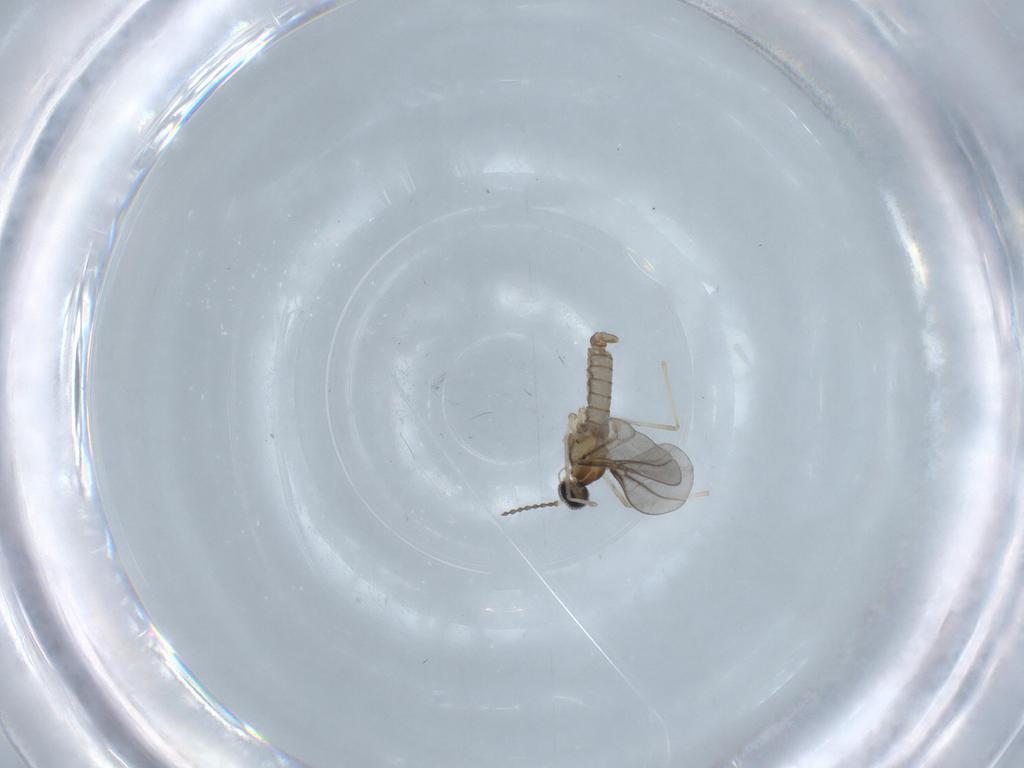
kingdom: Animalia
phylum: Arthropoda
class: Insecta
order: Diptera
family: Cecidomyiidae
